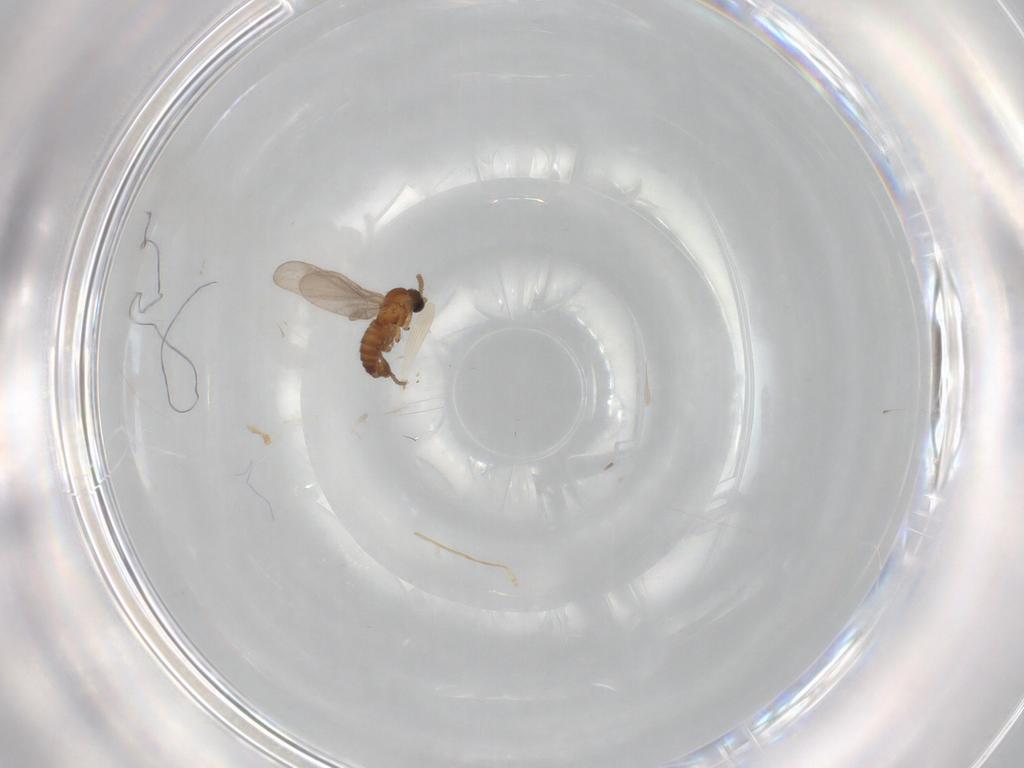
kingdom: Animalia
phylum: Arthropoda
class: Insecta
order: Diptera
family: Sciaridae
